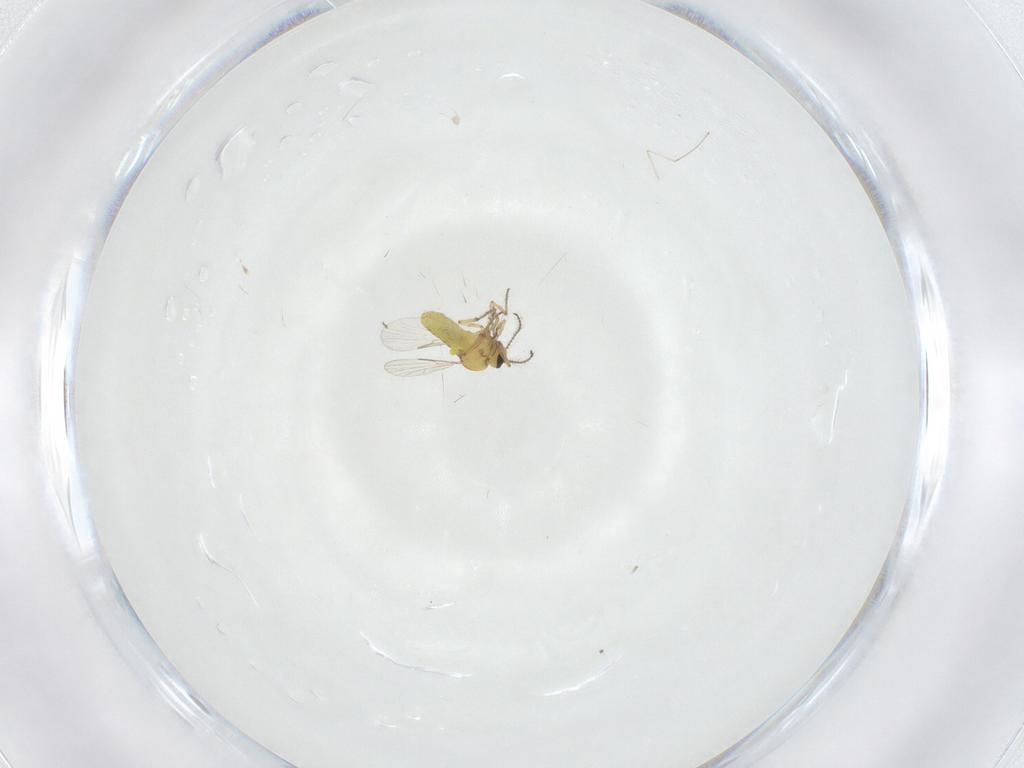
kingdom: Animalia
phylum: Arthropoda
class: Insecta
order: Diptera
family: Ceratopogonidae
